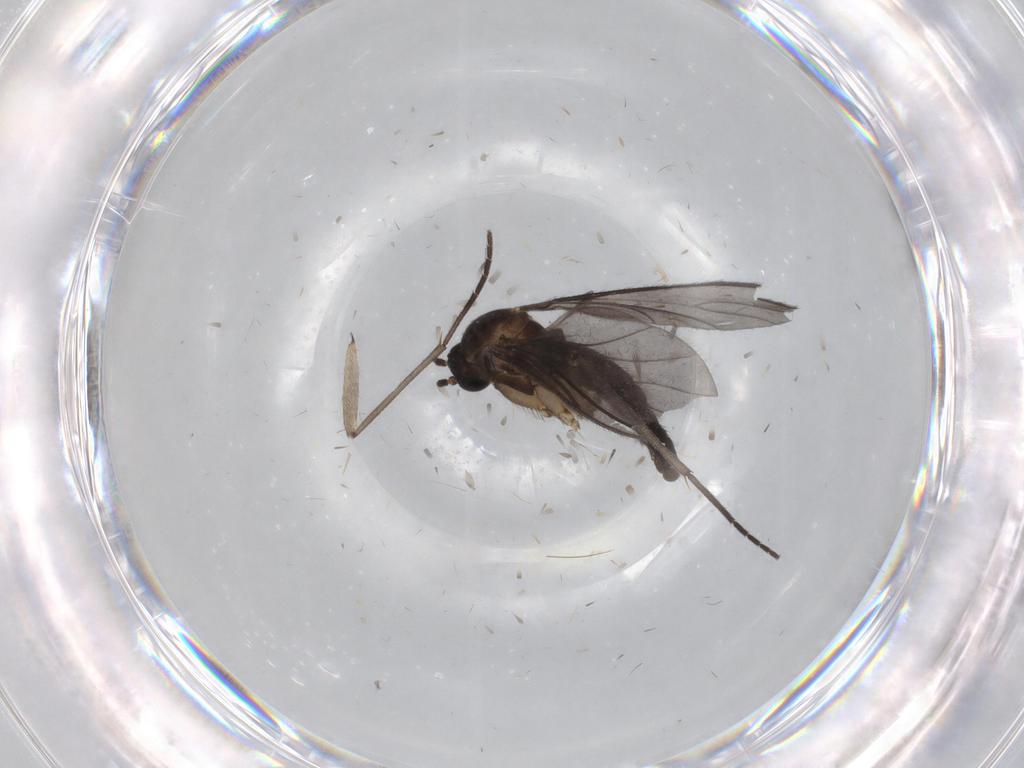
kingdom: Animalia
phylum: Arthropoda
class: Insecta
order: Diptera
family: Sciaridae
